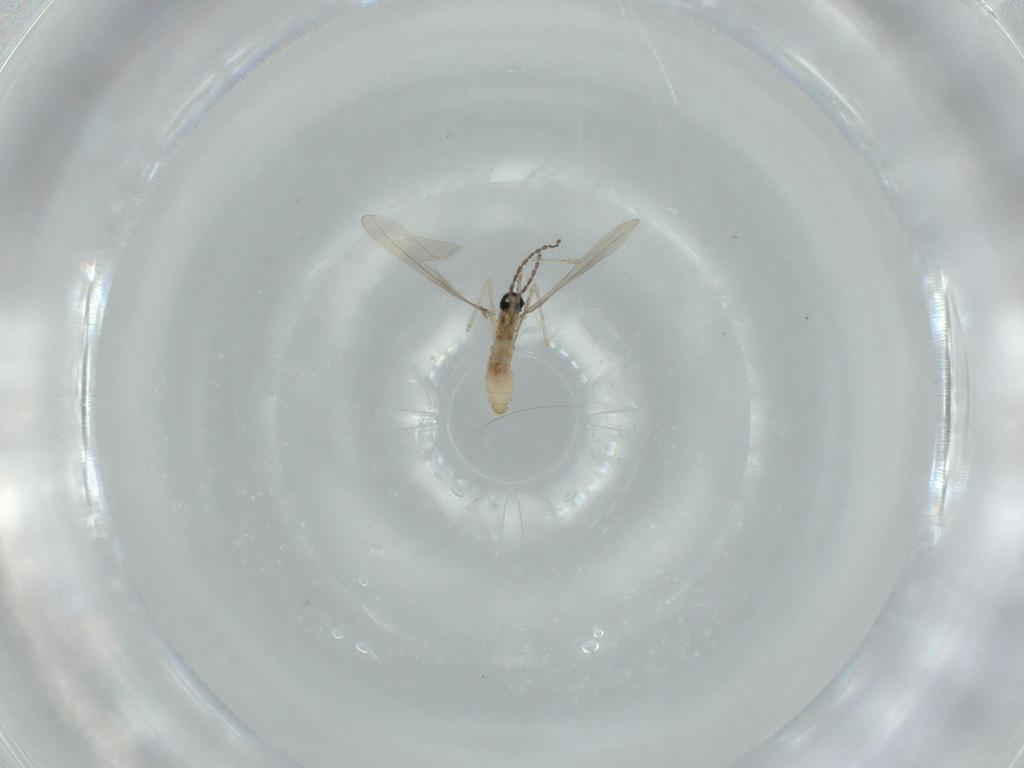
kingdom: Animalia
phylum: Arthropoda
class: Insecta
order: Diptera
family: Cecidomyiidae
